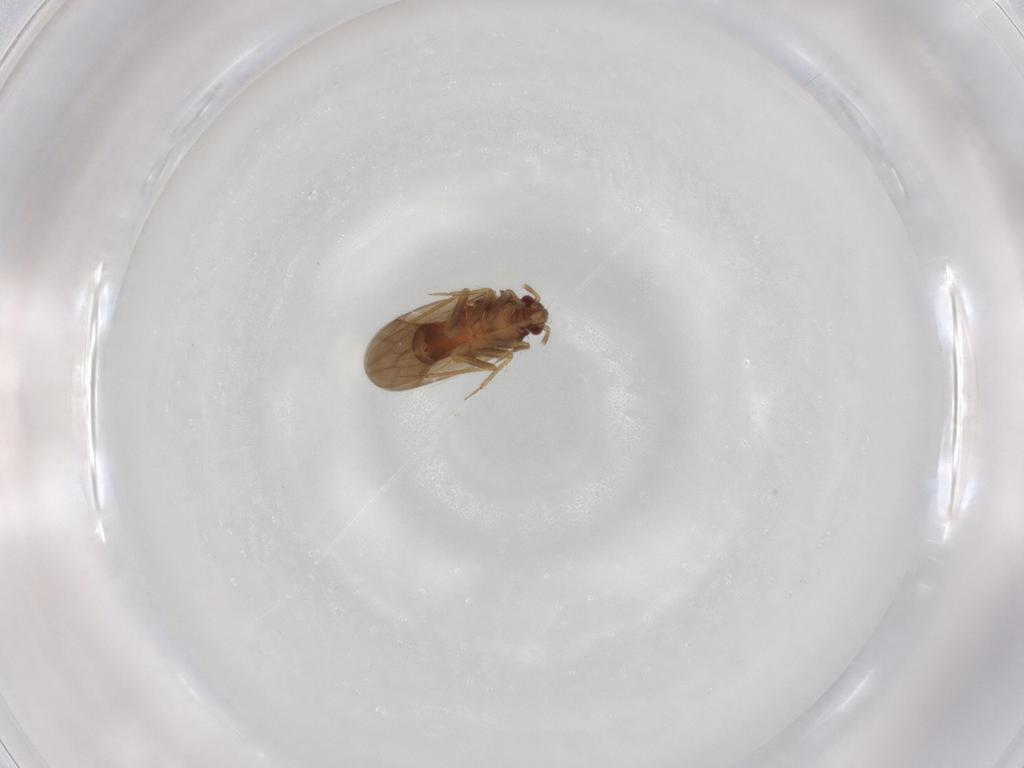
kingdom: Animalia
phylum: Arthropoda
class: Insecta
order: Hemiptera
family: Ceratocombidae
